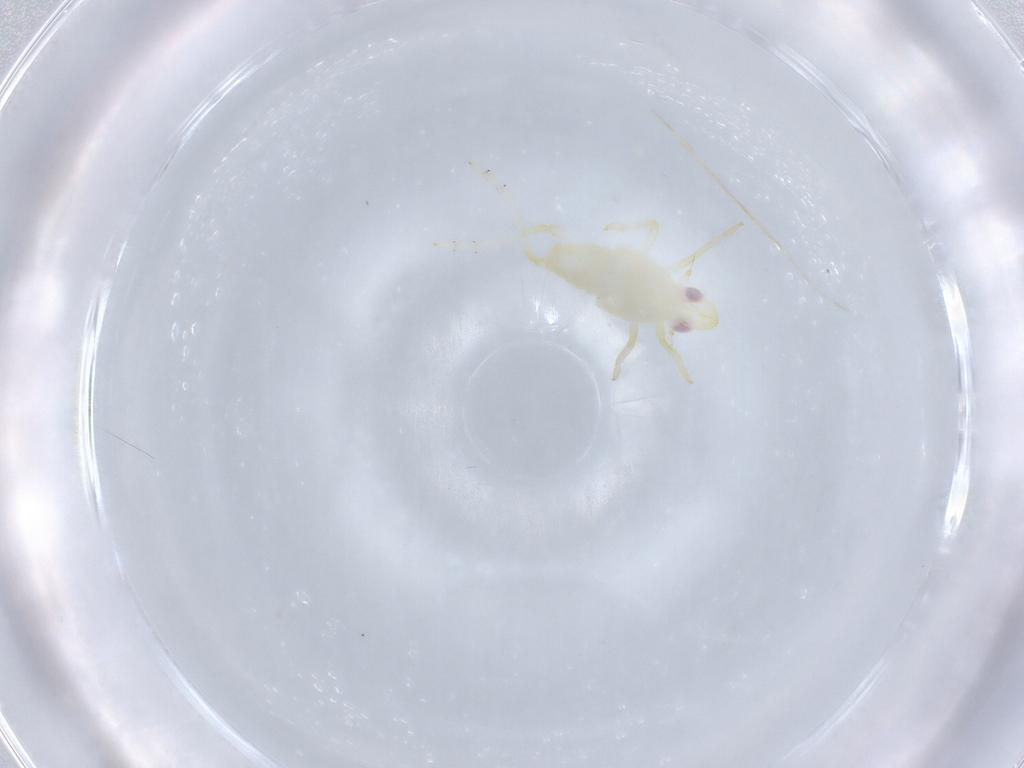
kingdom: Animalia
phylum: Arthropoda
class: Insecta
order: Hemiptera
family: Tropiduchidae
